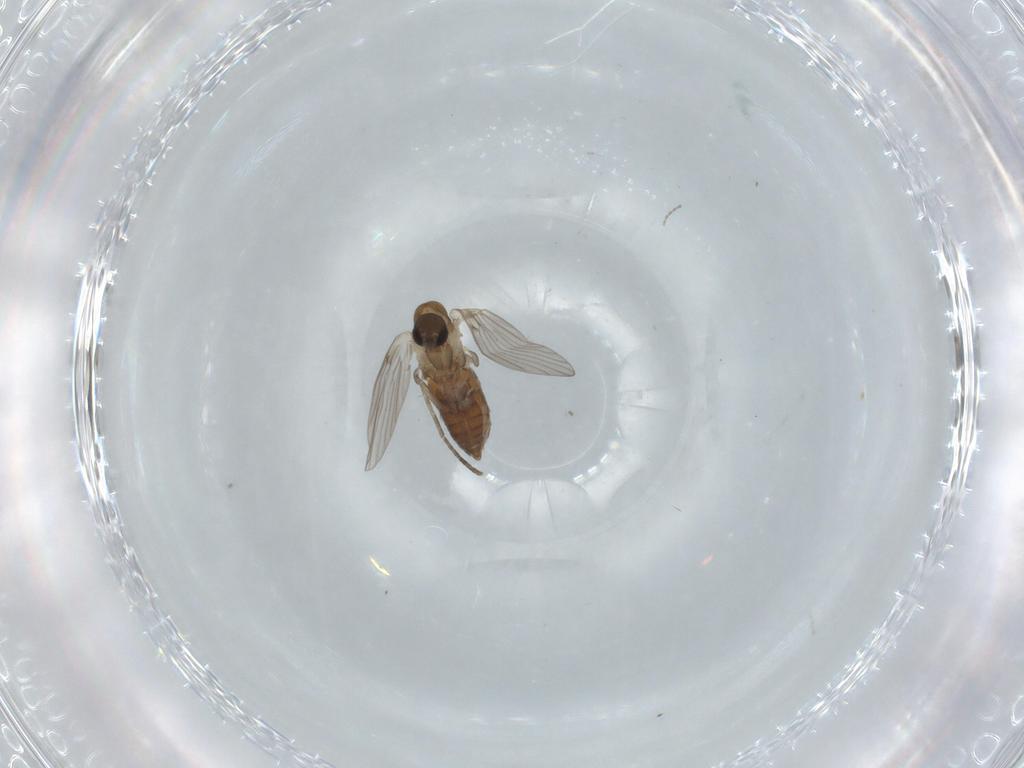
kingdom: Animalia
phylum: Arthropoda
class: Insecta
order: Diptera
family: Psychodidae
